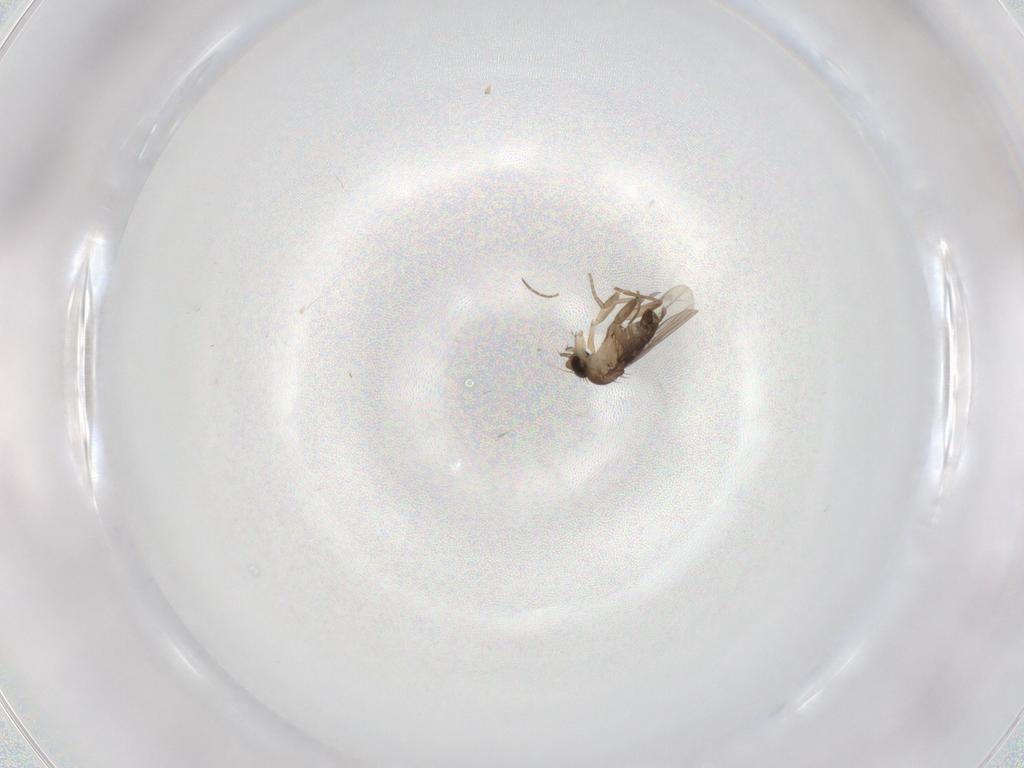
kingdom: Animalia
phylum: Arthropoda
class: Insecta
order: Diptera
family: Phoridae
